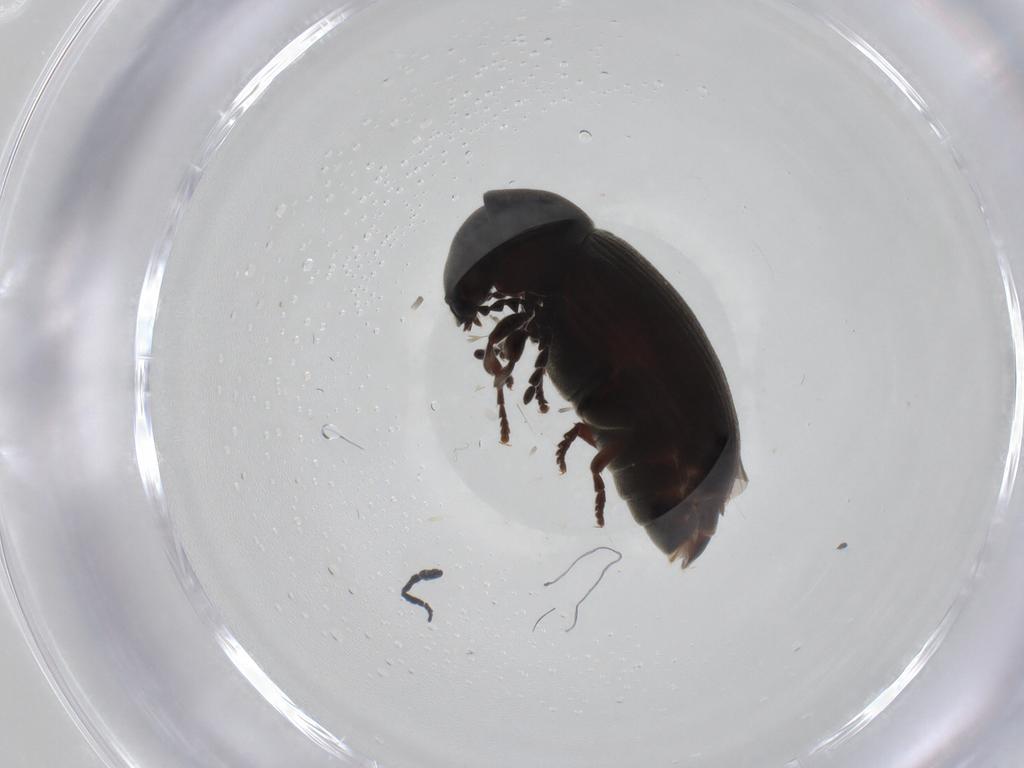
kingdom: Animalia
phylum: Arthropoda
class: Insecta
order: Coleoptera
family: Ptinidae
